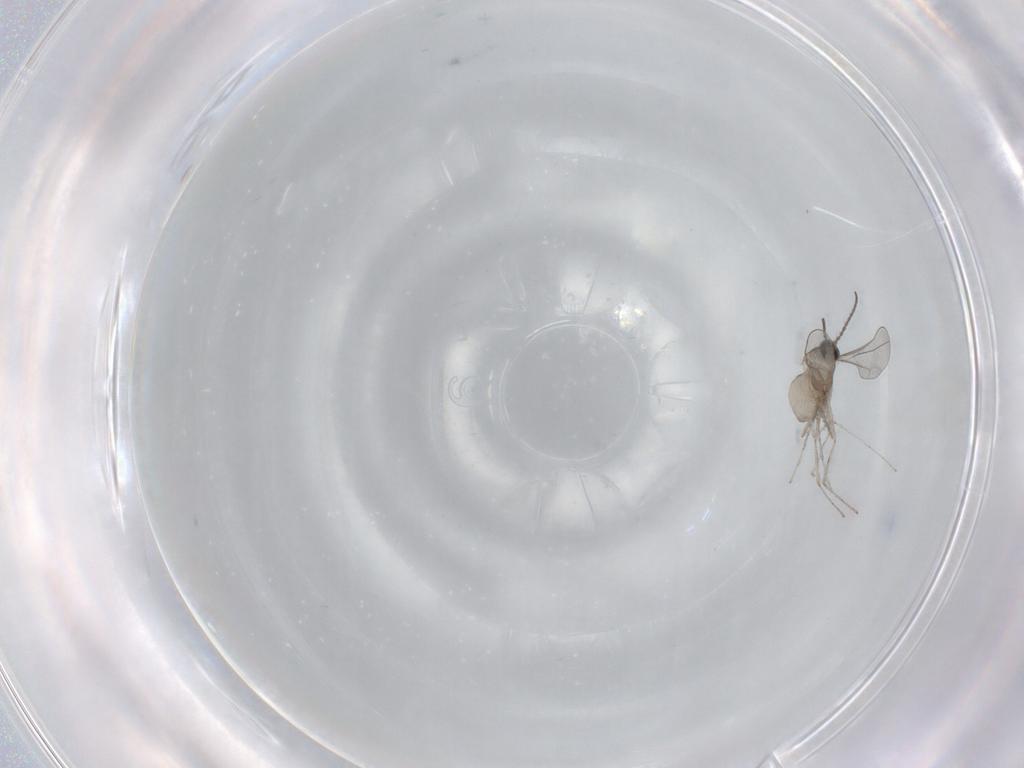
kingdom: Animalia
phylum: Arthropoda
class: Insecta
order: Diptera
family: Cecidomyiidae
